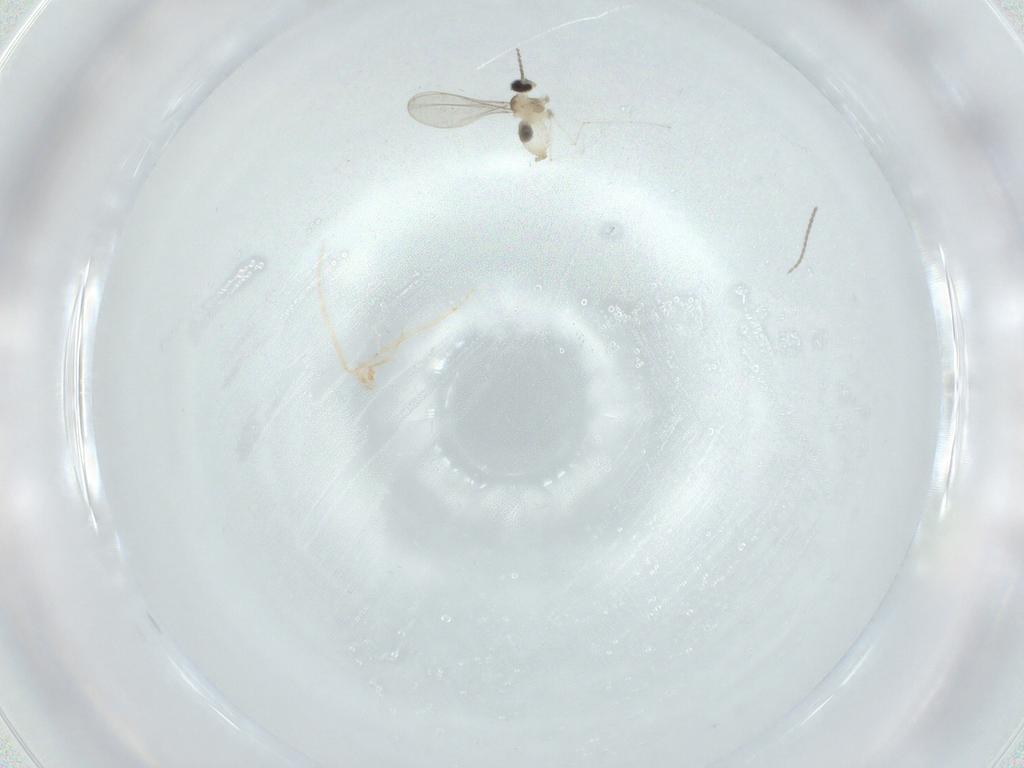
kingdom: Animalia
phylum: Arthropoda
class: Insecta
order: Diptera
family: Cecidomyiidae
